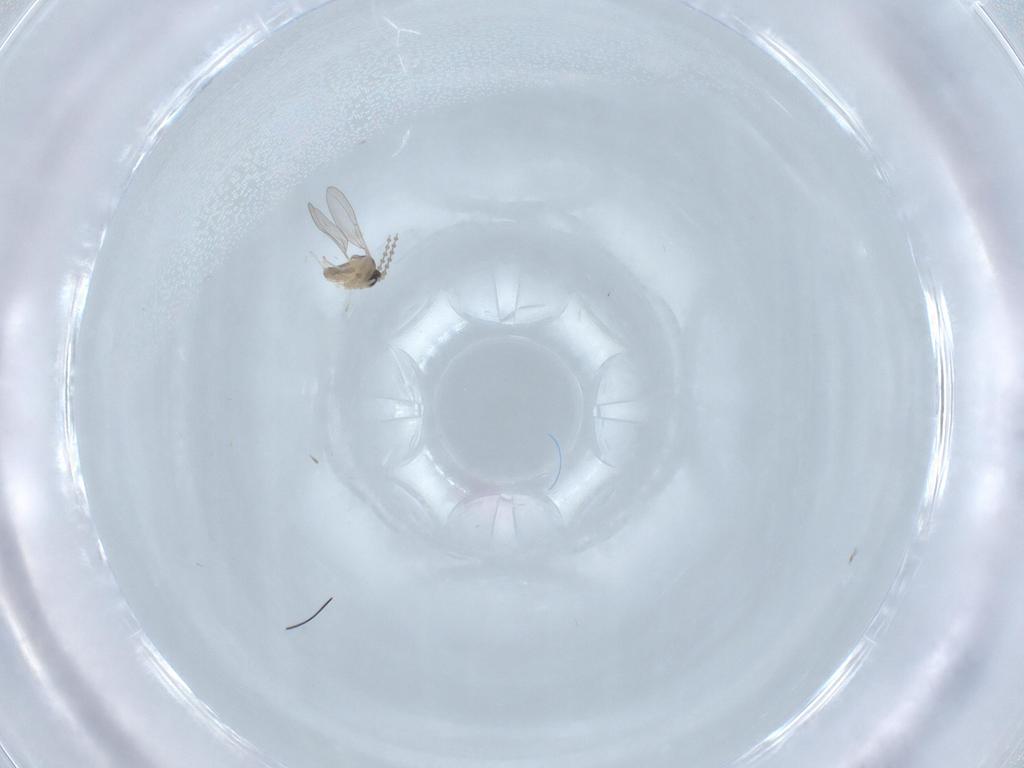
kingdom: Animalia
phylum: Arthropoda
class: Insecta
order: Diptera
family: Cecidomyiidae
